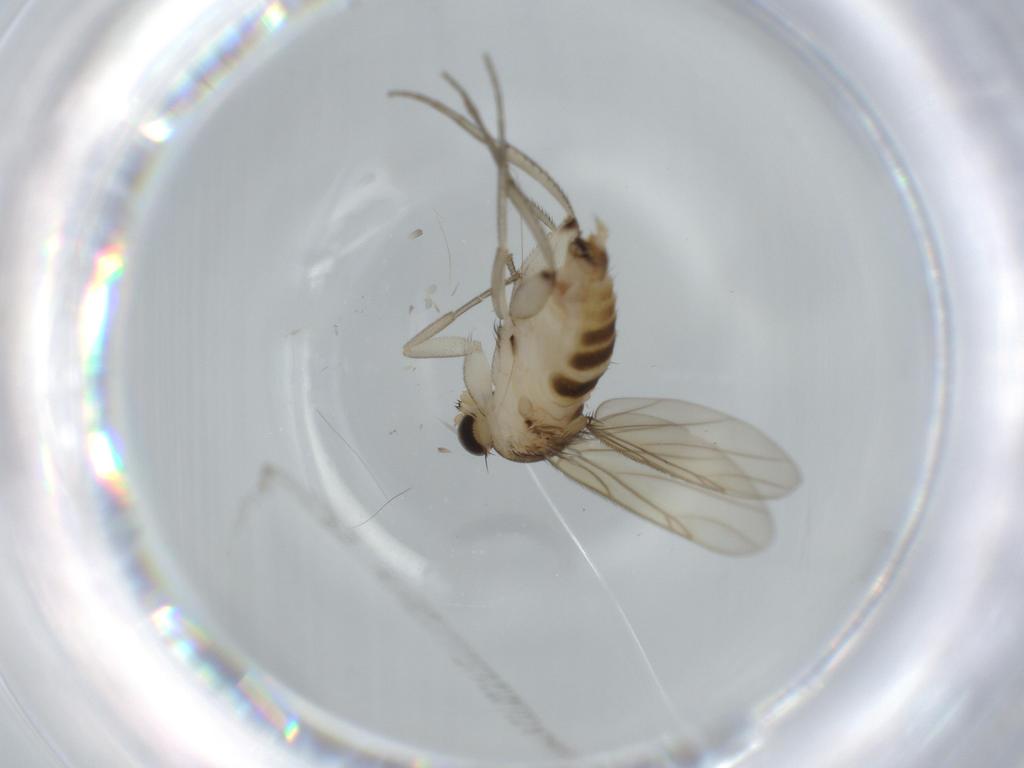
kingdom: Animalia
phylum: Arthropoda
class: Insecta
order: Diptera
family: Phoridae
